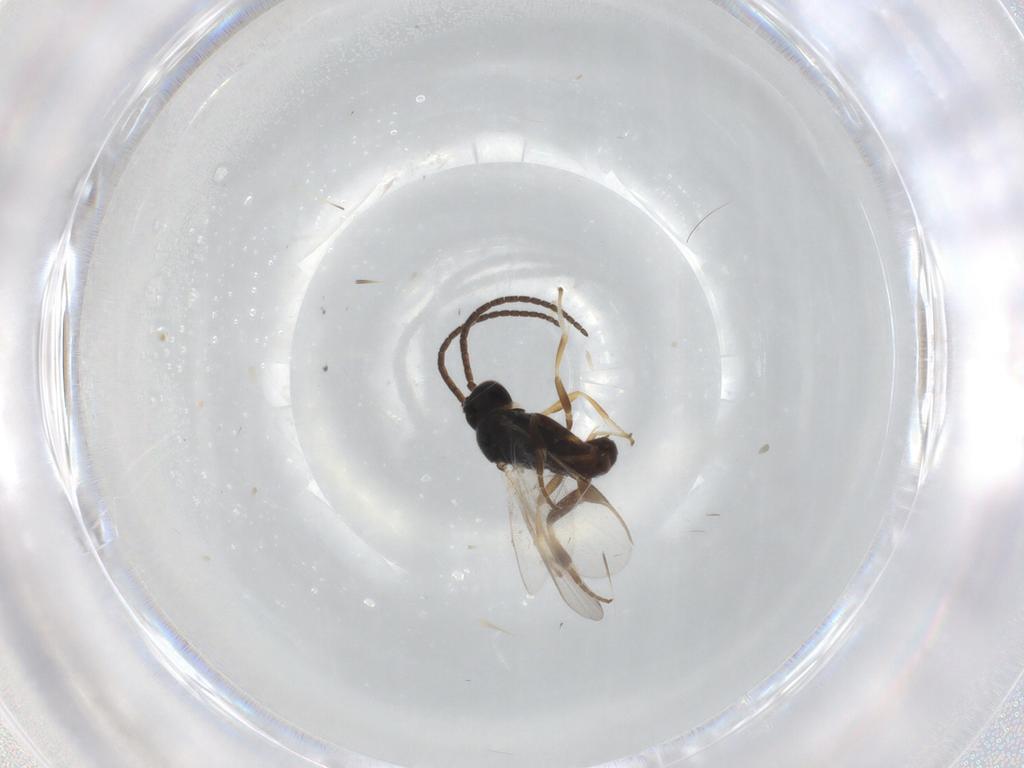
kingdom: Animalia
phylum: Arthropoda
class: Insecta
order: Hymenoptera
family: Braconidae
